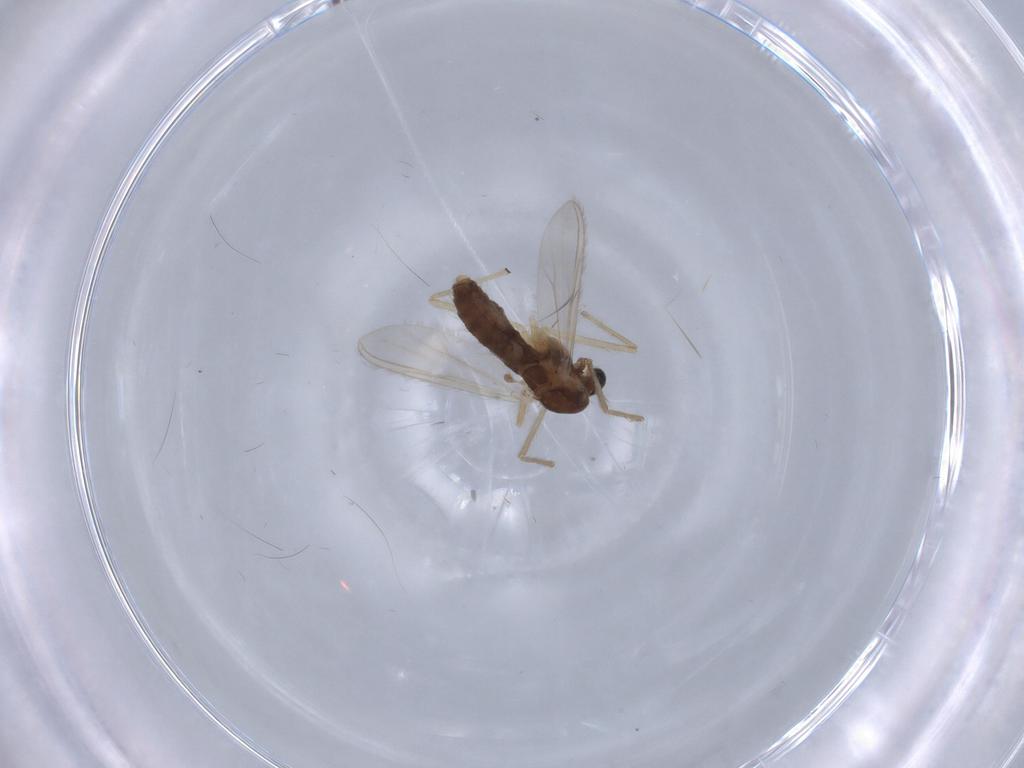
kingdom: Animalia
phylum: Arthropoda
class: Insecta
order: Diptera
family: Chironomidae
